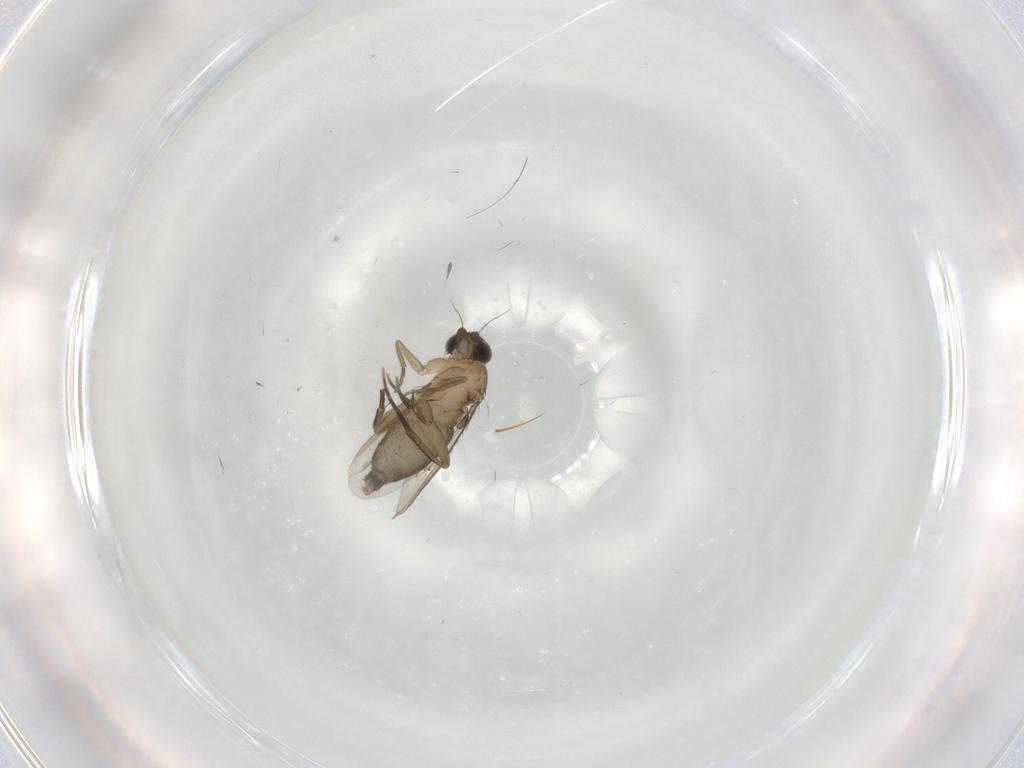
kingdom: Animalia
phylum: Arthropoda
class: Insecta
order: Diptera
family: Phoridae
